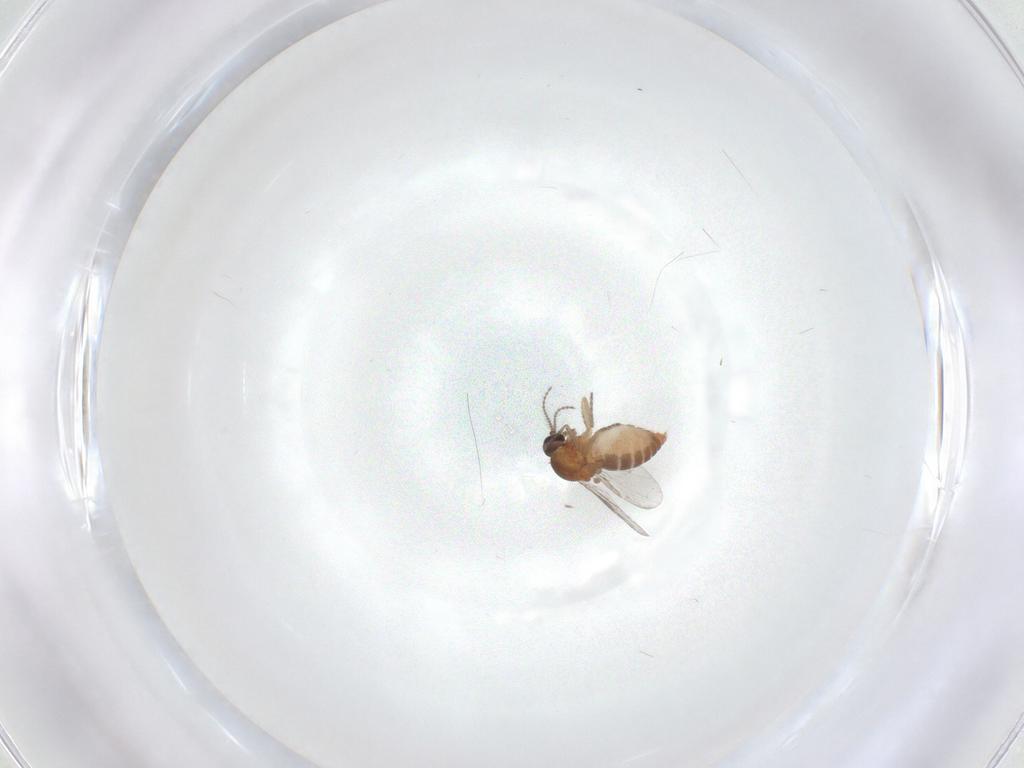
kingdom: Animalia
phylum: Arthropoda
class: Insecta
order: Diptera
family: Ceratopogonidae
